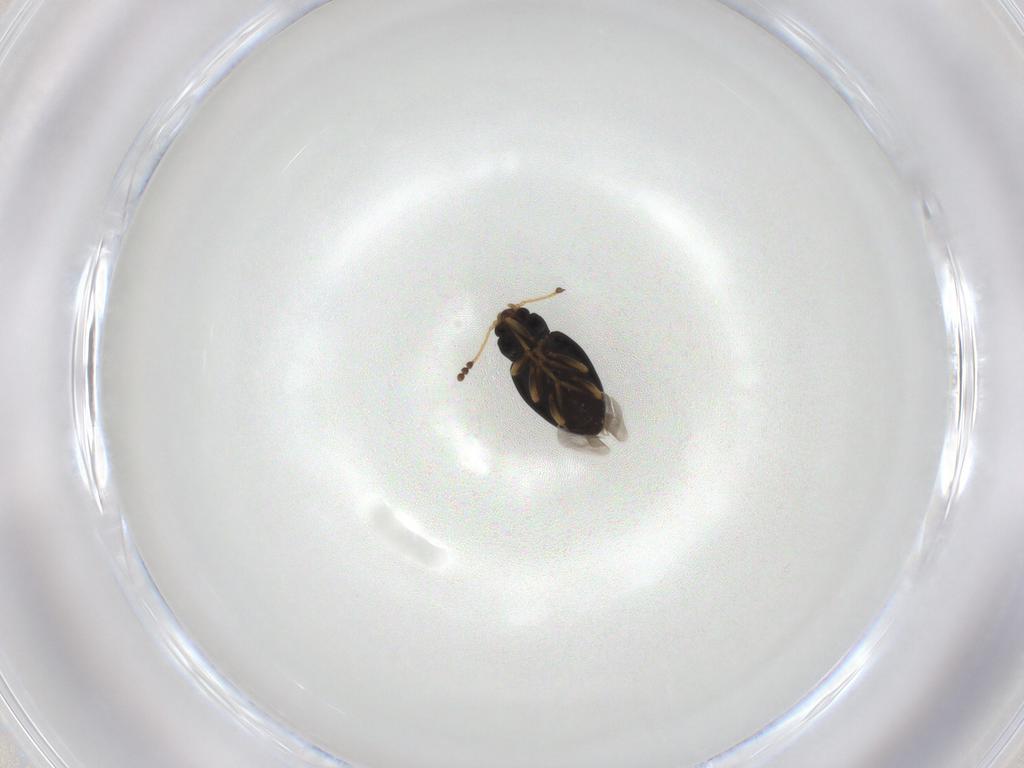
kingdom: Animalia
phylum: Arthropoda
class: Insecta
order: Coleoptera
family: Erotylidae
